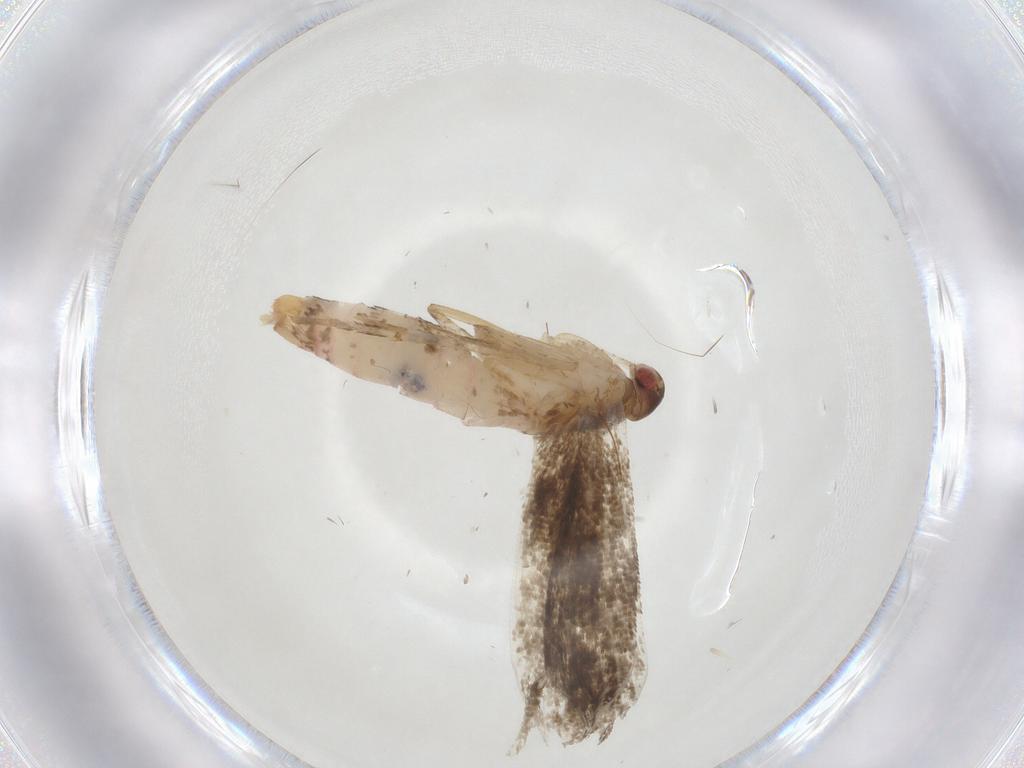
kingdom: Animalia
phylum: Arthropoda
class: Insecta
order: Lepidoptera
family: Gelechiidae
